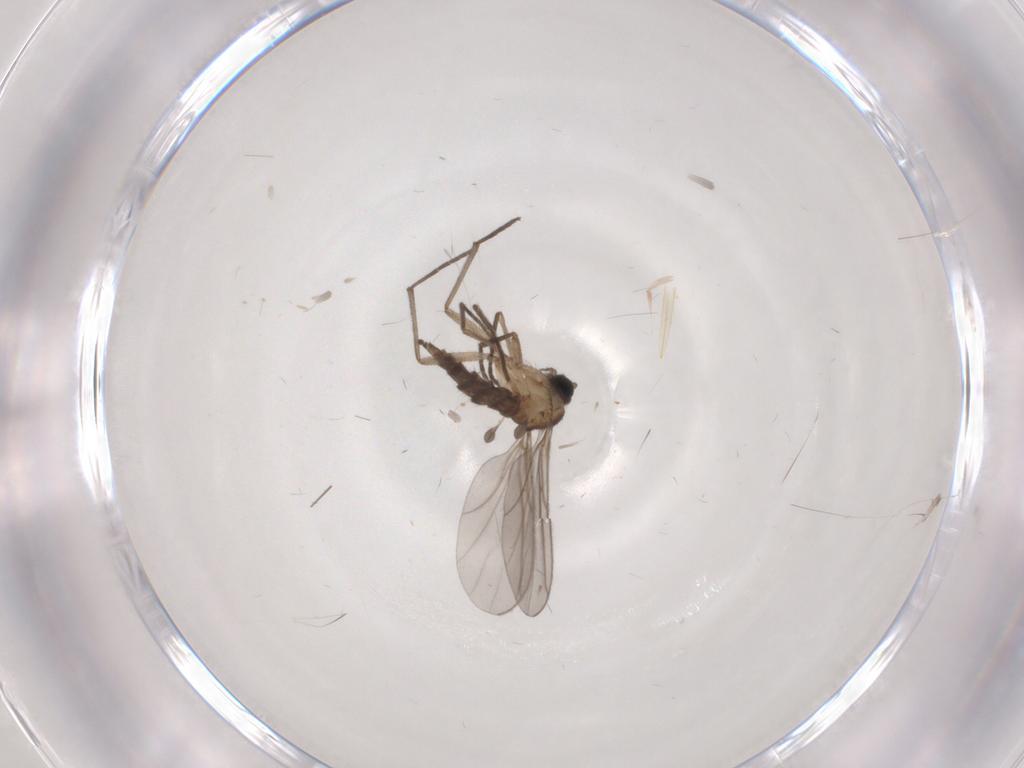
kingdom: Animalia
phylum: Arthropoda
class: Insecta
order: Diptera
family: Sciaridae
